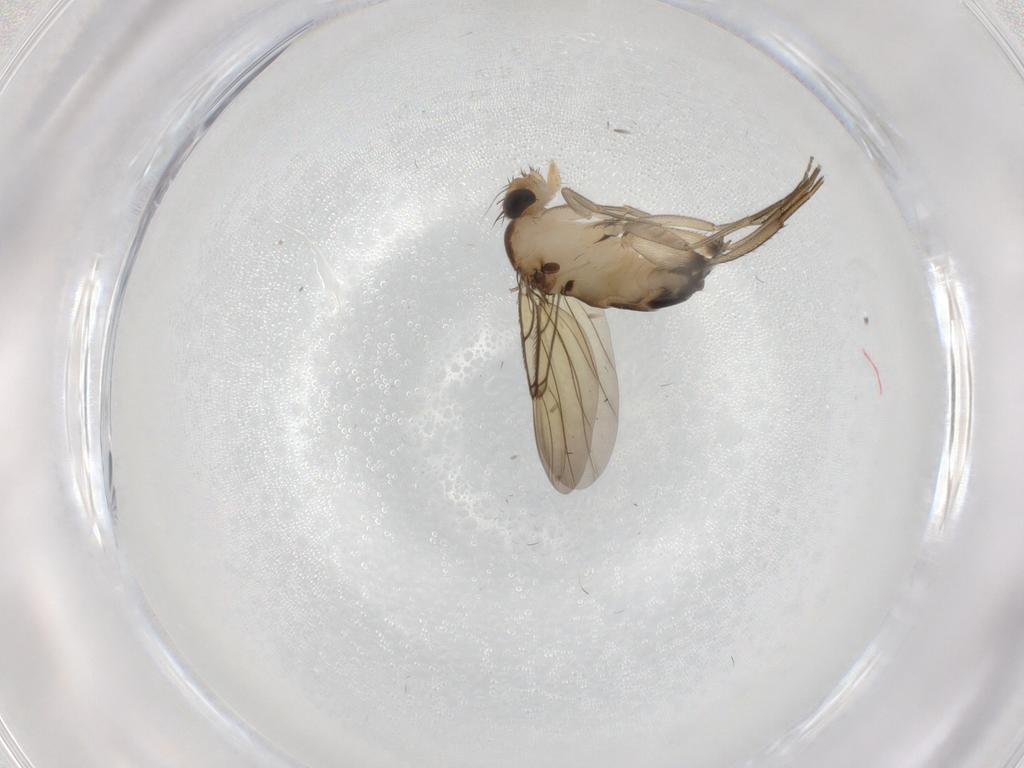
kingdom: Animalia
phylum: Arthropoda
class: Insecta
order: Diptera
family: Phoridae
